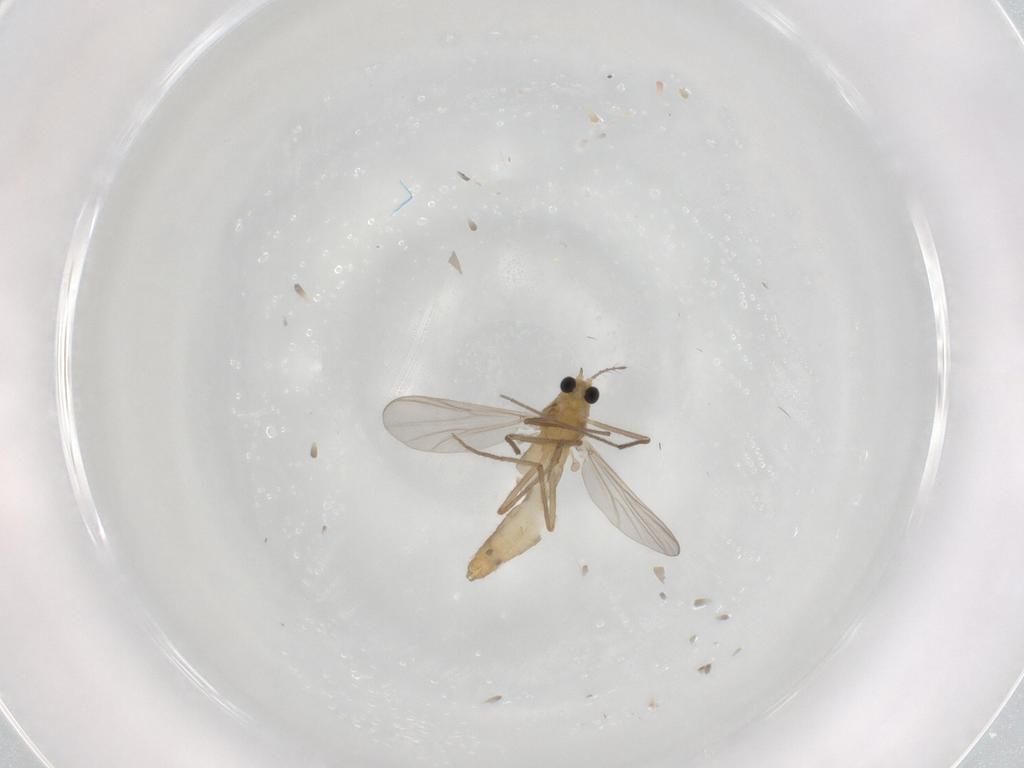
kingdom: Animalia
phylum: Arthropoda
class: Insecta
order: Diptera
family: Chironomidae
